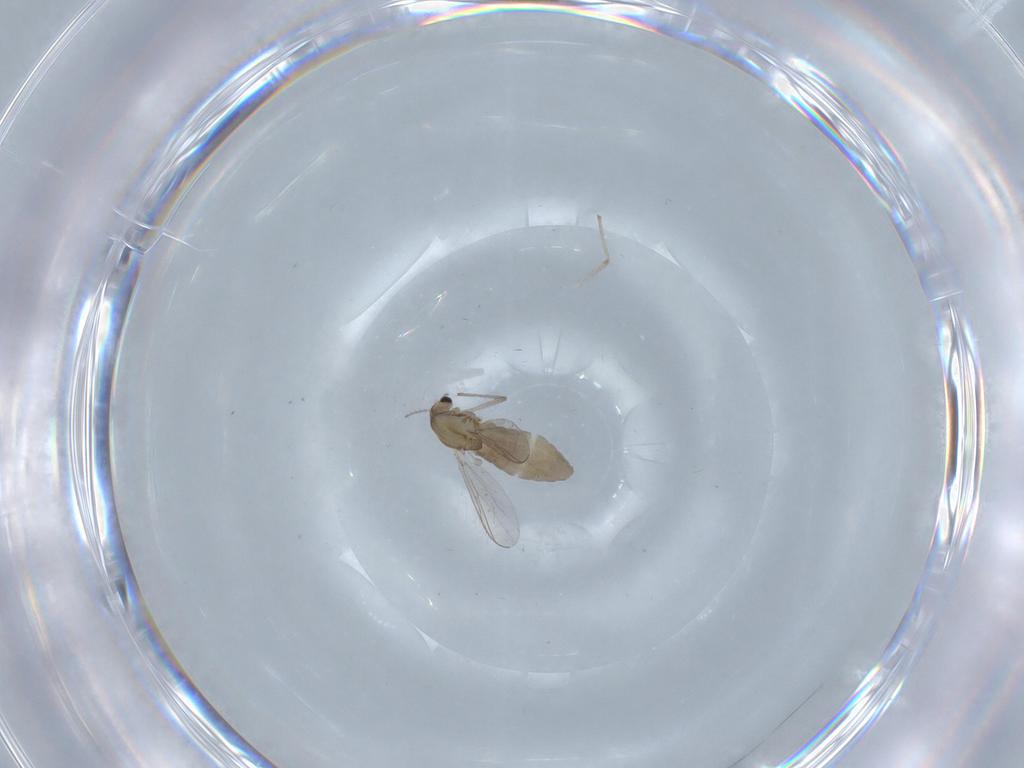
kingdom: Animalia
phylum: Arthropoda
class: Insecta
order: Diptera
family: Chironomidae
